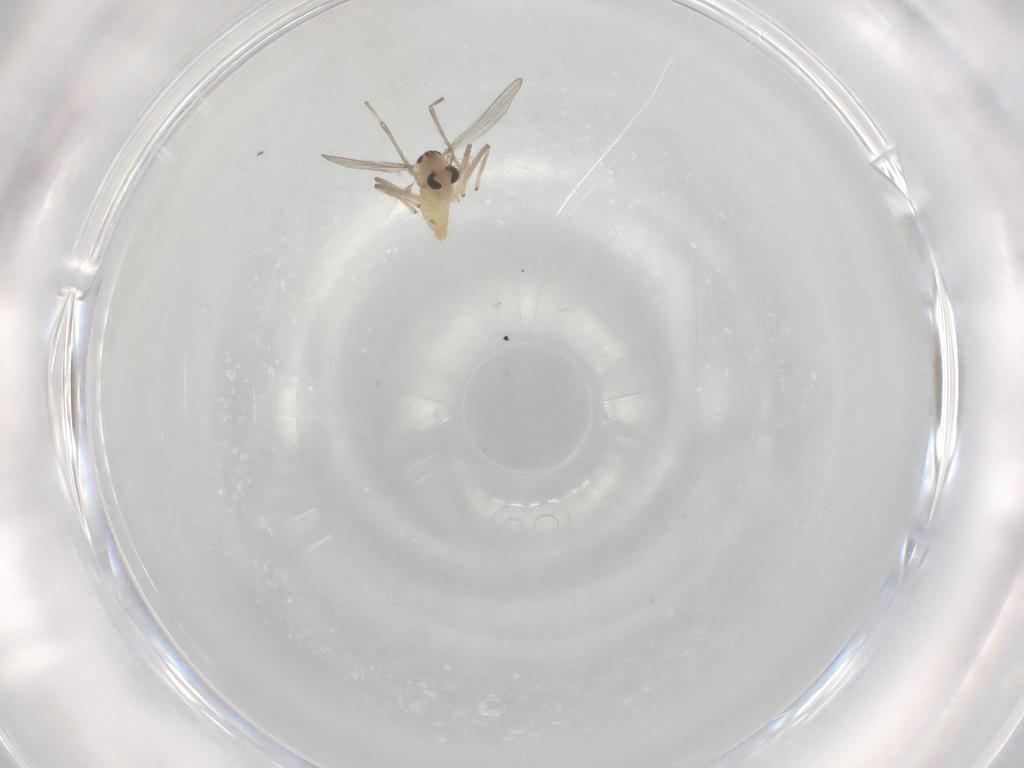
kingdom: Animalia
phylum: Arthropoda
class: Insecta
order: Diptera
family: Chironomidae
